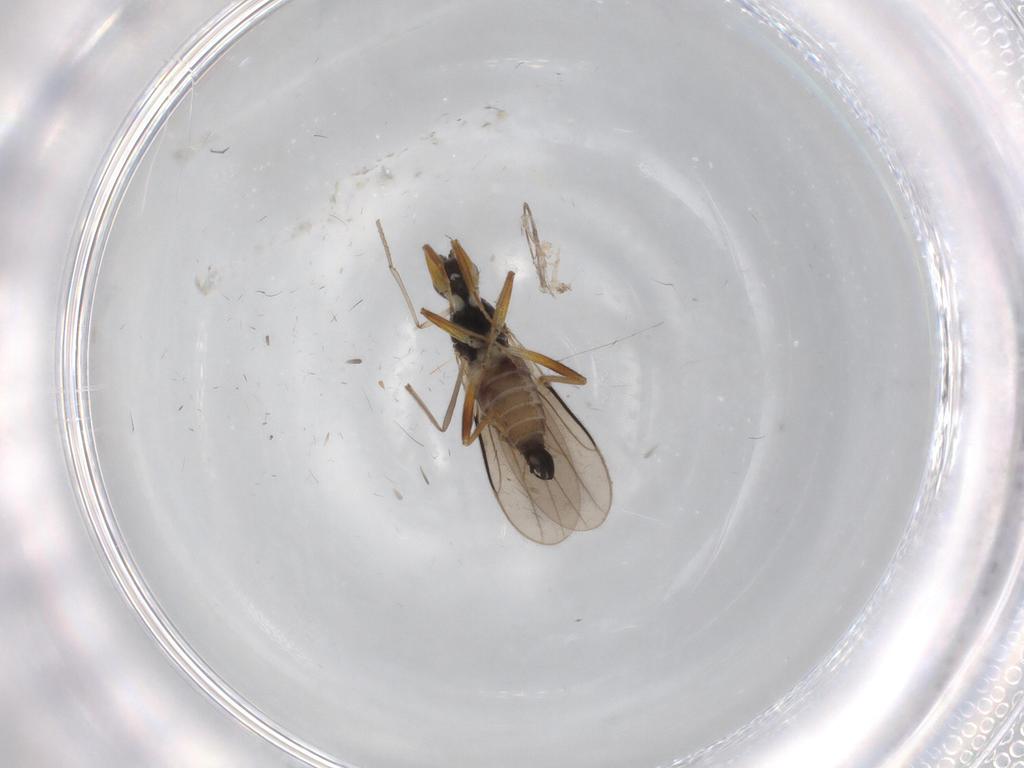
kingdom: Animalia
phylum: Arthropoda
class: Insecta
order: Diptera
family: Hybotidae
